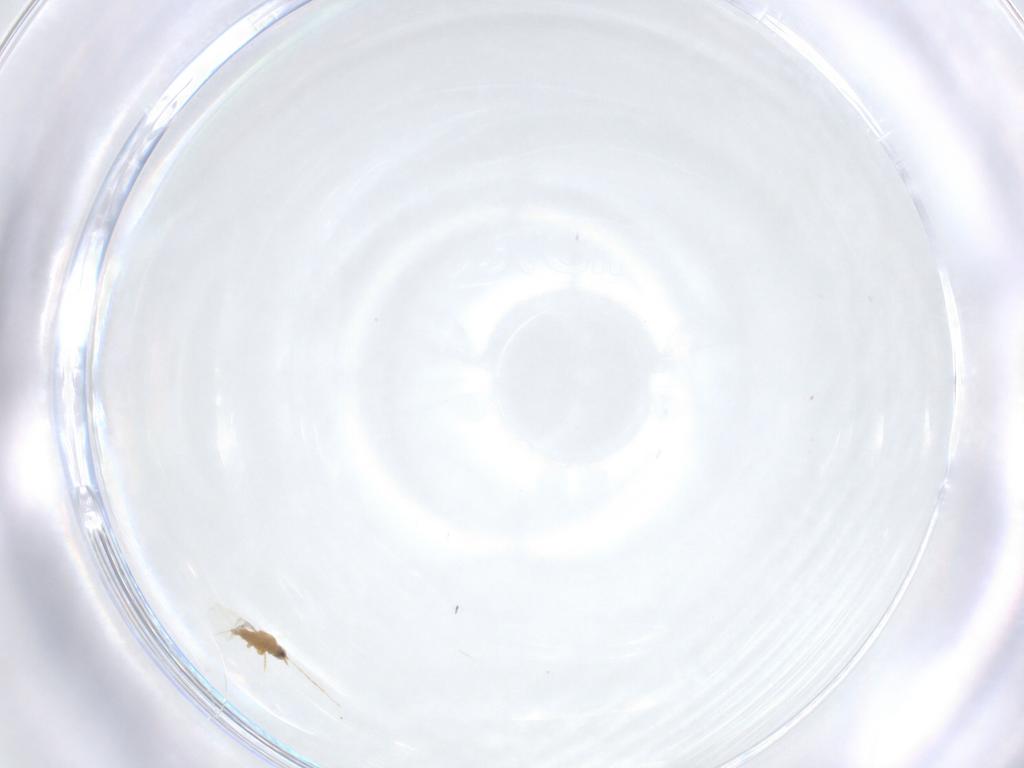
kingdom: Animalia
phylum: Arthropoda
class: Insecta
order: Hemiptera
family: Diaspididae
